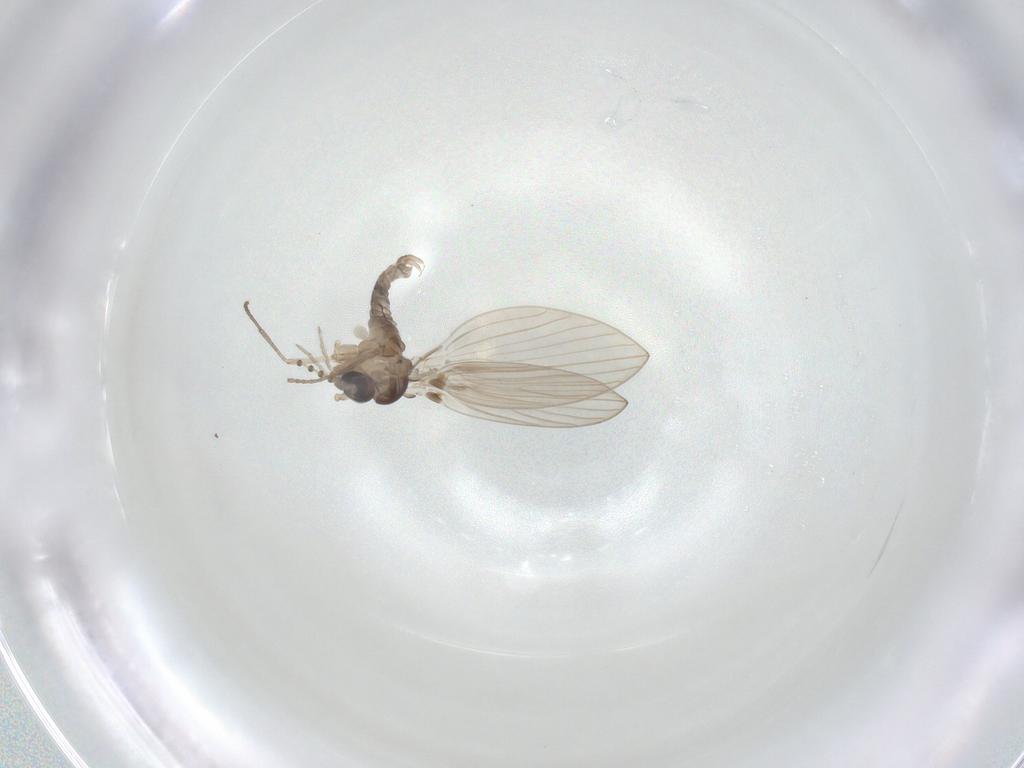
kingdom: Animalia
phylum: Arthropoda
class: Insecta
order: Diptera
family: Psychodidae
